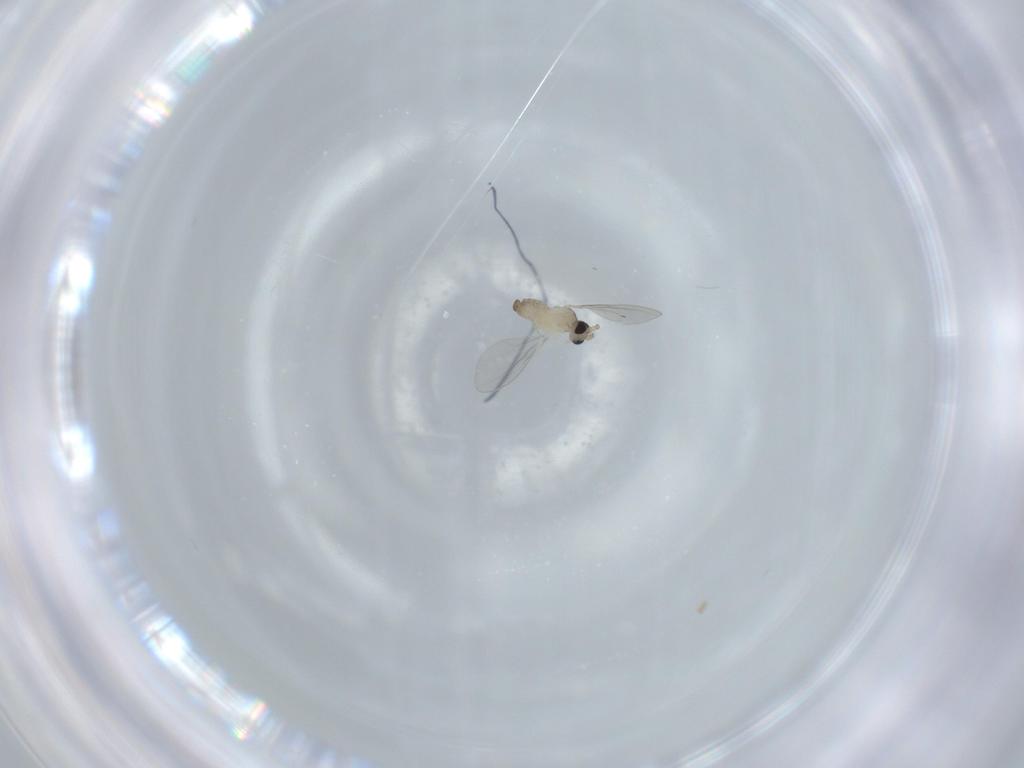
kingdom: Animalia
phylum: Arthropoda
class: Insecta
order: Diptera
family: Cecidomyiidae
